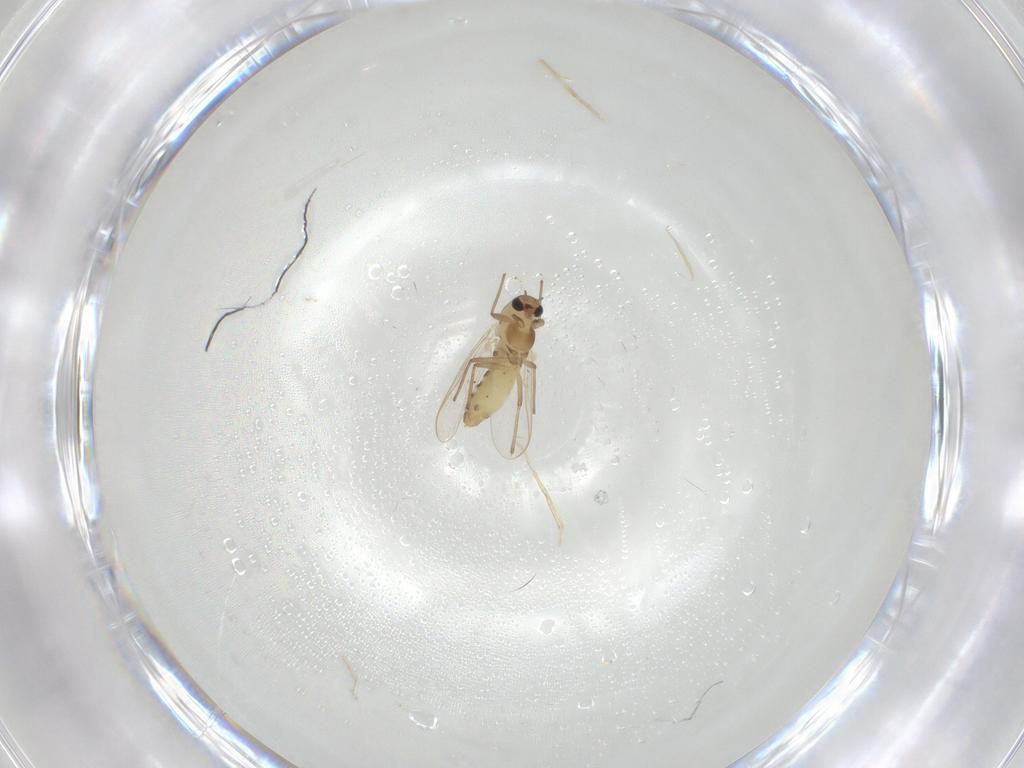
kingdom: Animalia
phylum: Arthropoda
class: Insecta
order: Diptera
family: Chironomidae
